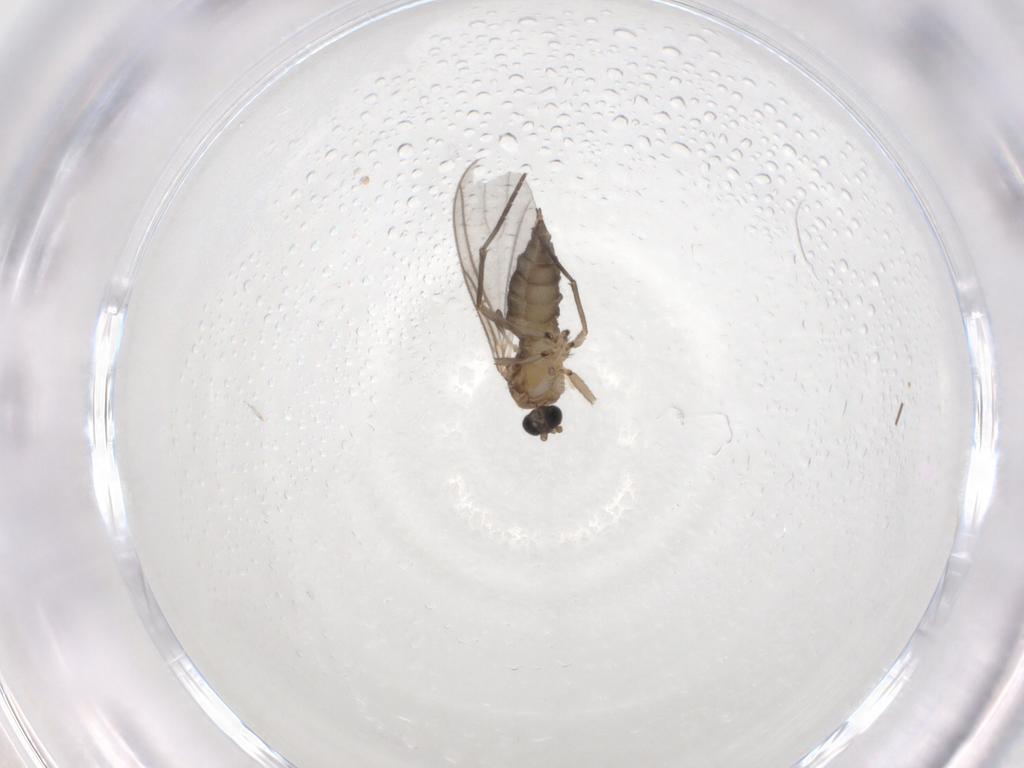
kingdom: Animalia
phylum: Arthropoda
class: Insecta
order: Diptera
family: Sciaridae
